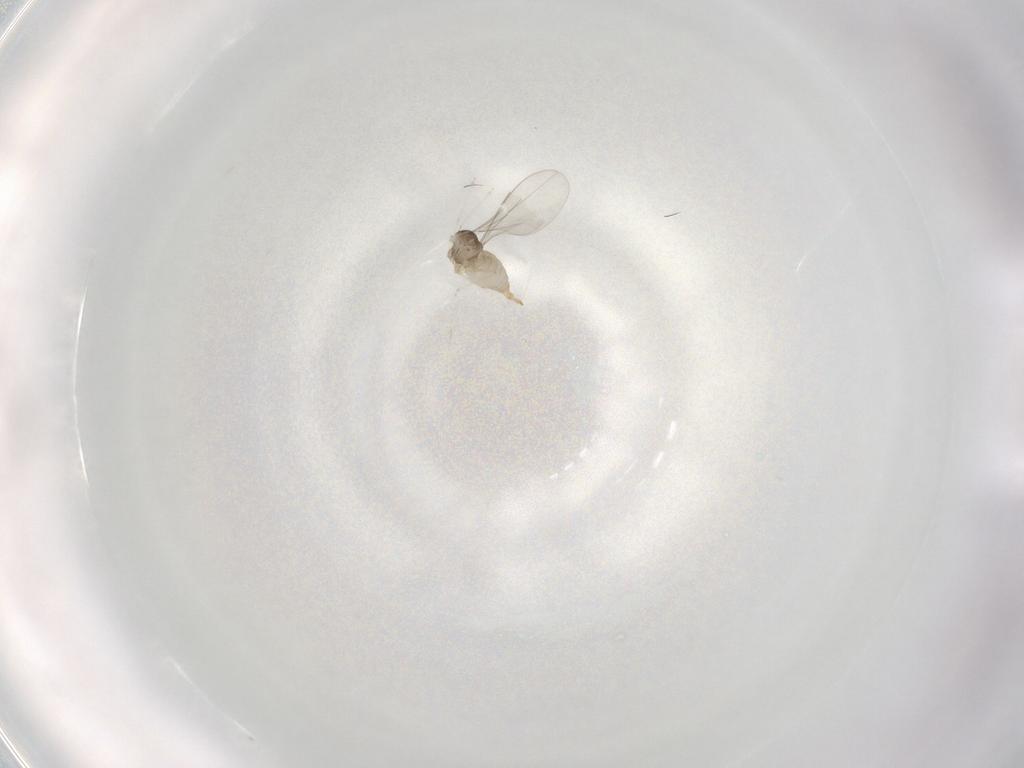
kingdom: Animalia
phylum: Arthropoda
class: Insecta
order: Diptera
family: Cecidomyiidae
